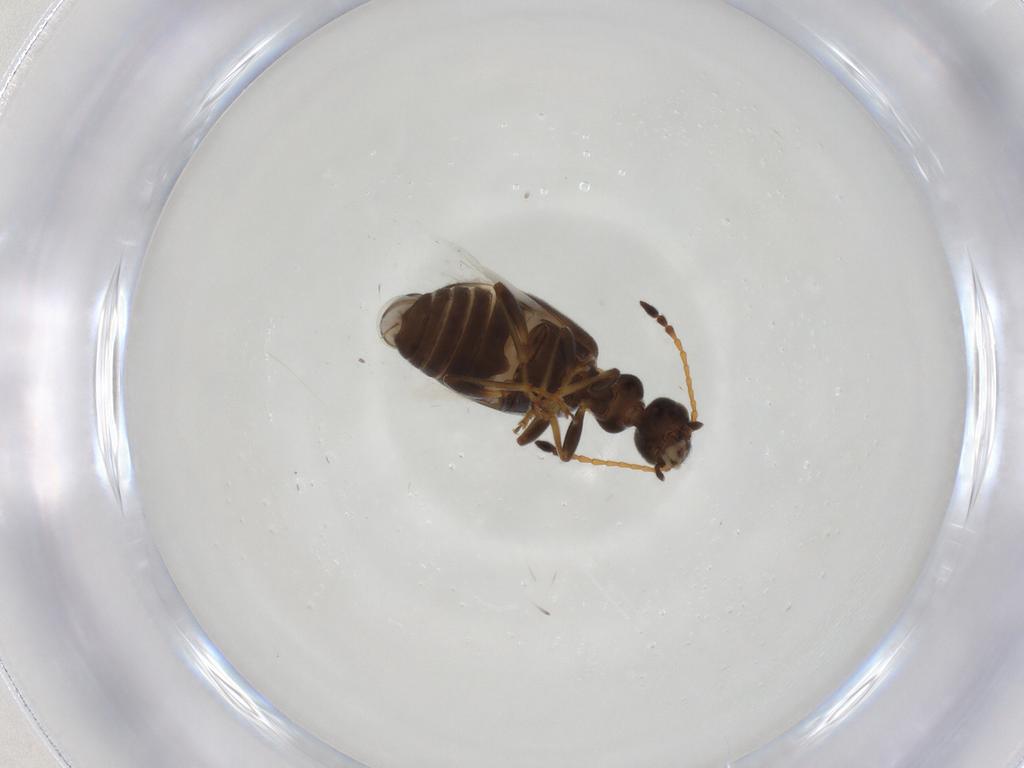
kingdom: Animalia
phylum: Arthropoda
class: Insecta
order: Coleoptera
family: Anthicidae
